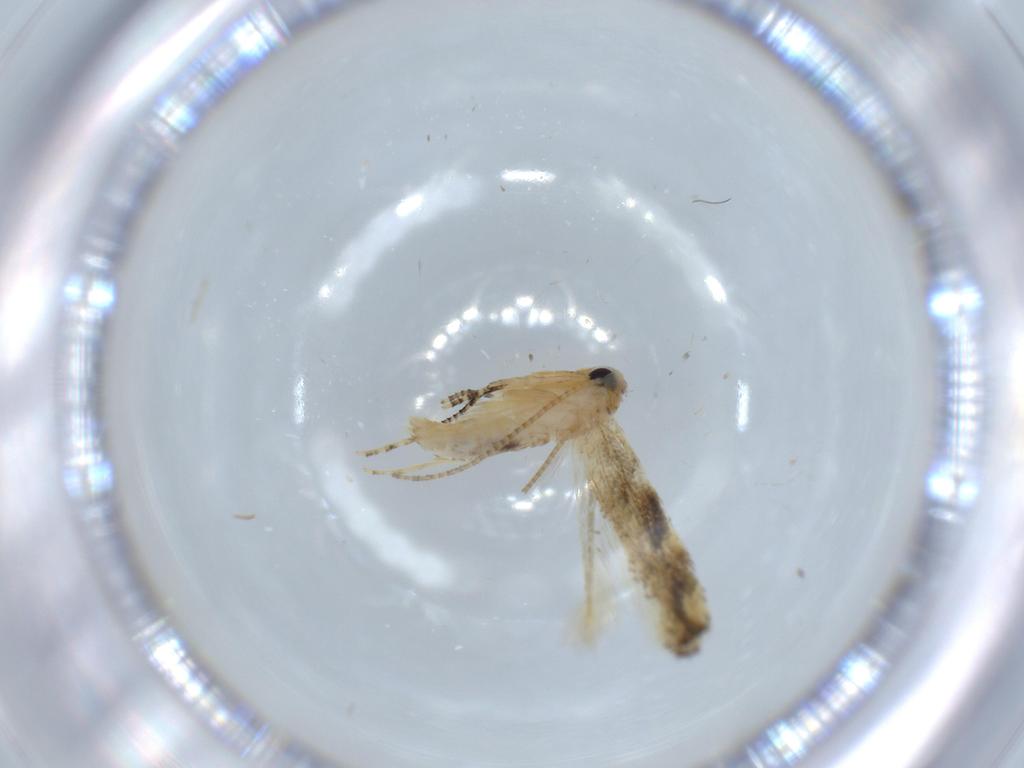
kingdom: Animalia
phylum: Arthropoda
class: Insecta
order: Lepidoptera
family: Bucculatricidae
